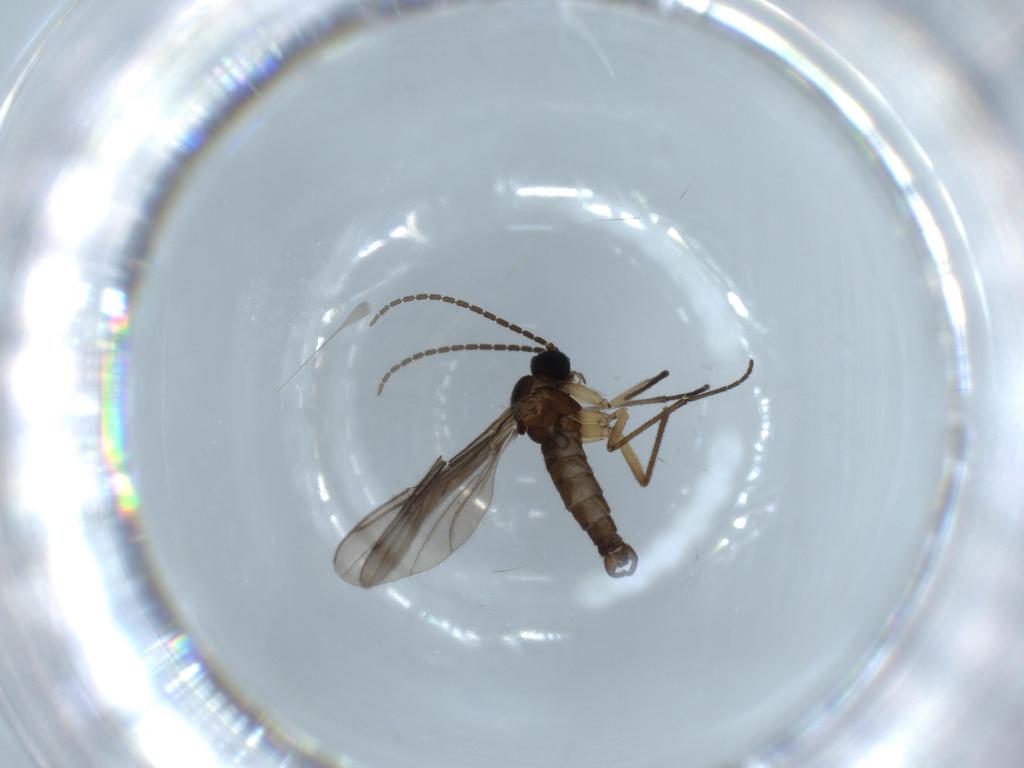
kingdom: Animalia
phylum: Arthropoda
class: Insecta
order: Diptera
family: Sciaridae
